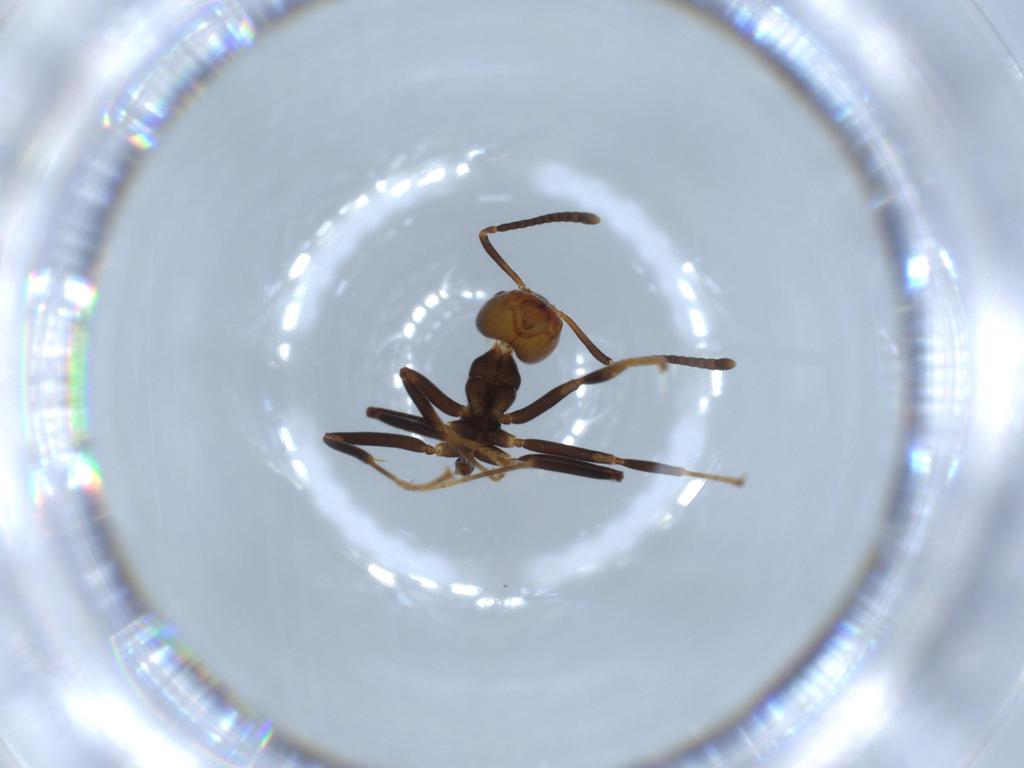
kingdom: Animalia
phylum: Arthropoda
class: Insecta
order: Hymenoptera
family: Formicidae
